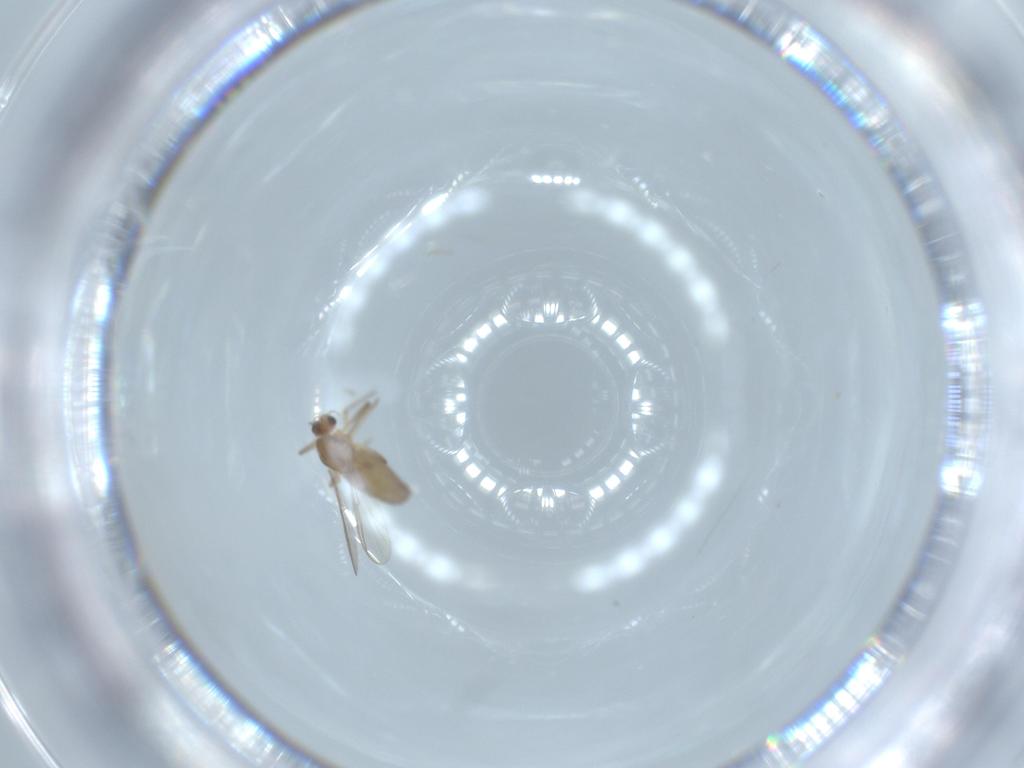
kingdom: Animalia
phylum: Arthropoda
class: Insecta
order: Diptera
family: Chironomidae
